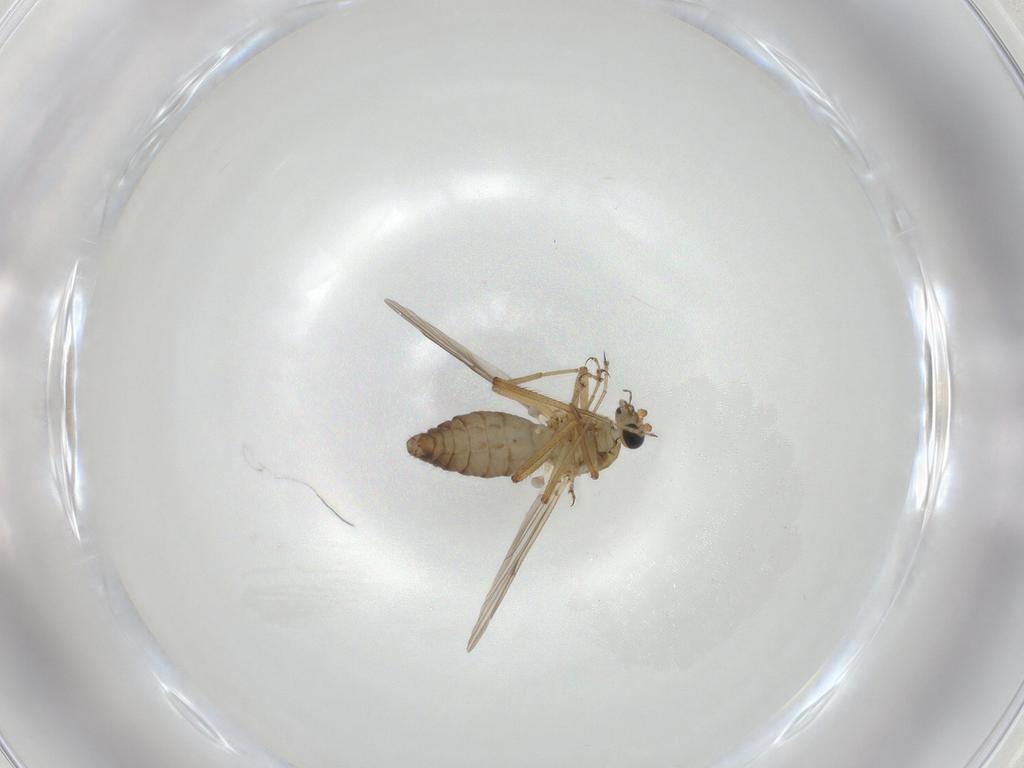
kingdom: Animalia
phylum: Arthropoda
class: Insecta
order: Diptera
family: Ceratopogonidae
